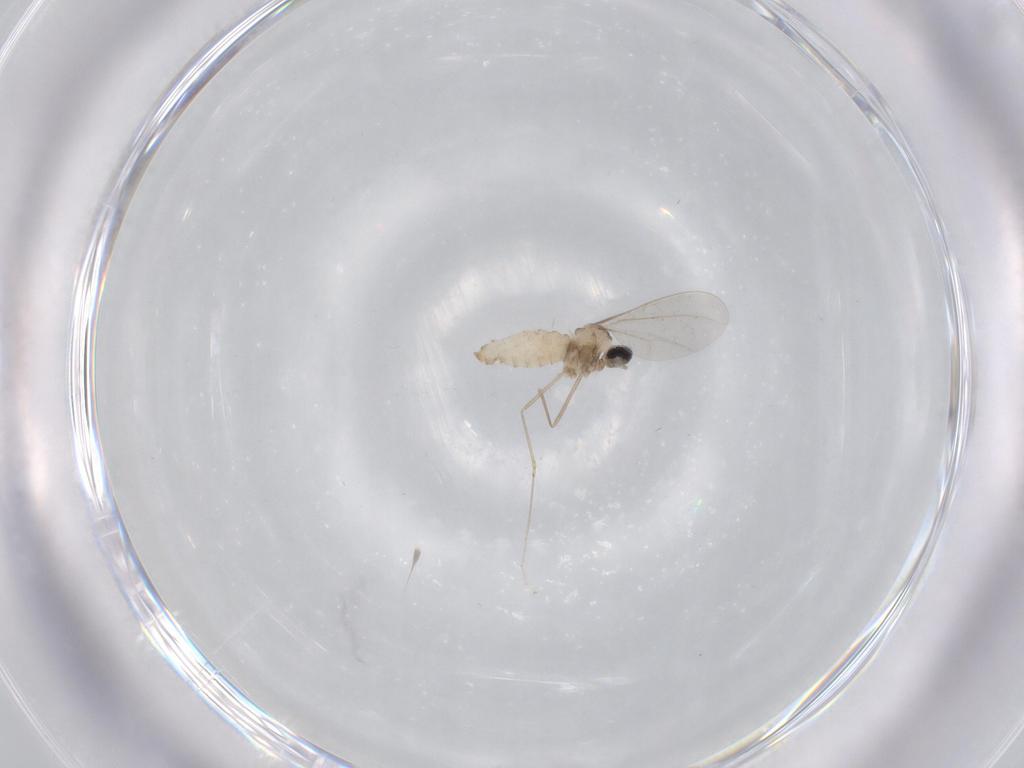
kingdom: Animalia
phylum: Arthropoda
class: Insecta
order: Diptera
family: Cecidomyiidae
